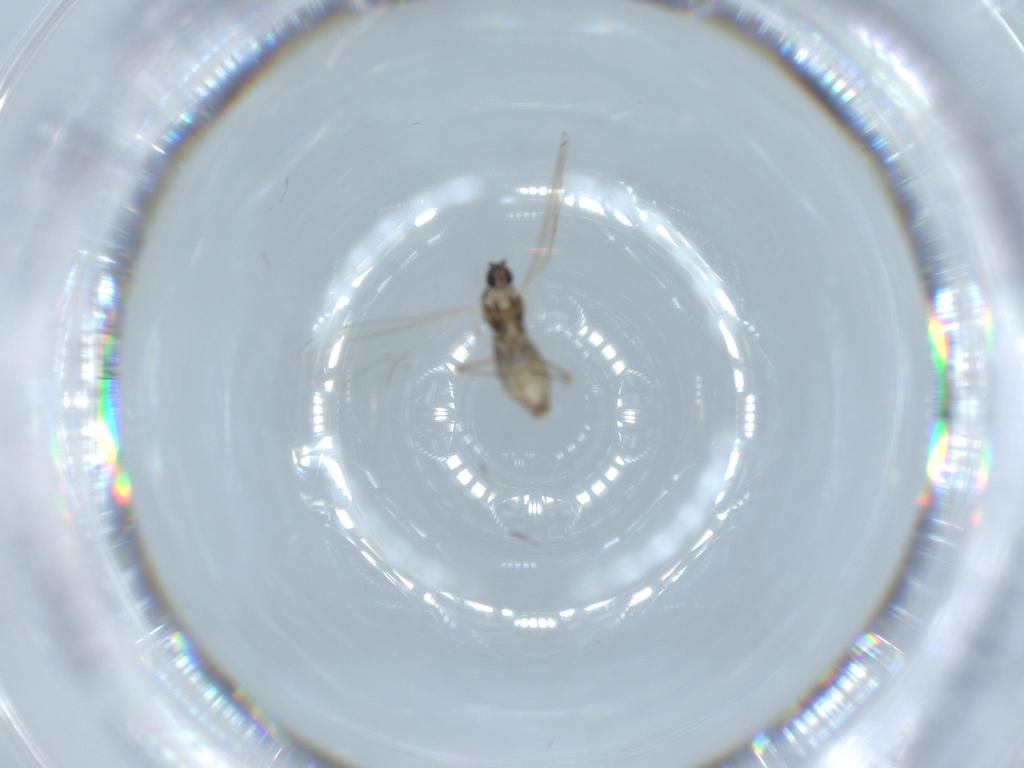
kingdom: Animalia
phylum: Arthropoda
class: Insecta
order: Diptera
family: Cecidomyiidae
